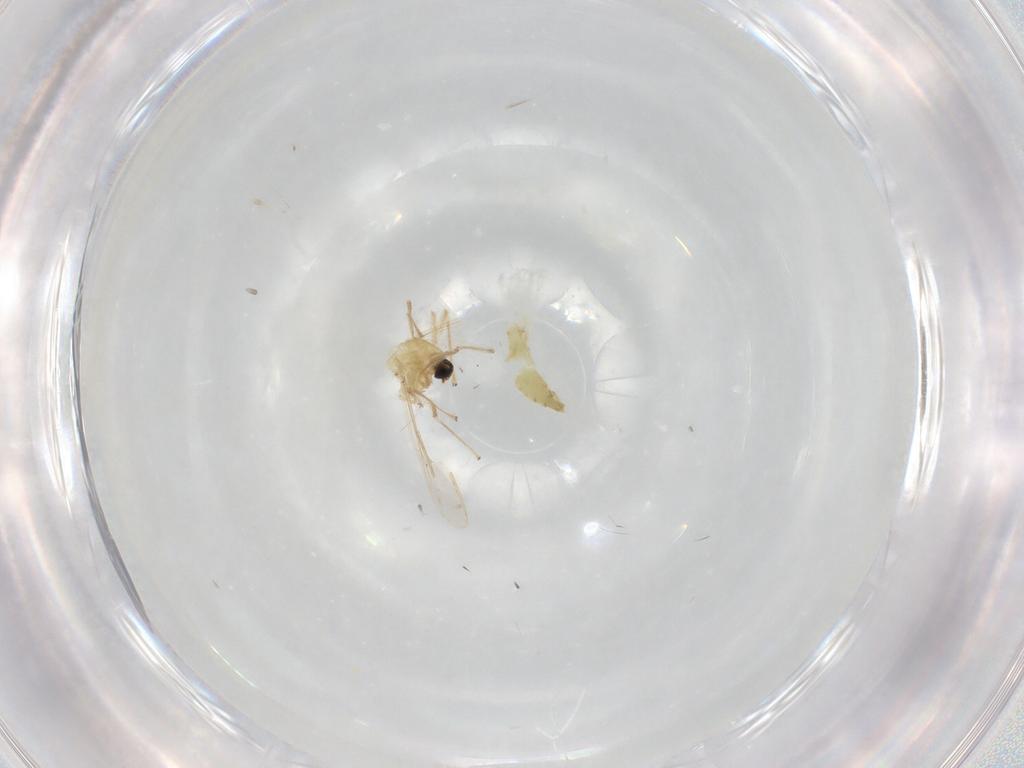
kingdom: Animalia
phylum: Arthropoda
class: Insecta
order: Diptera
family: Chironomidae
